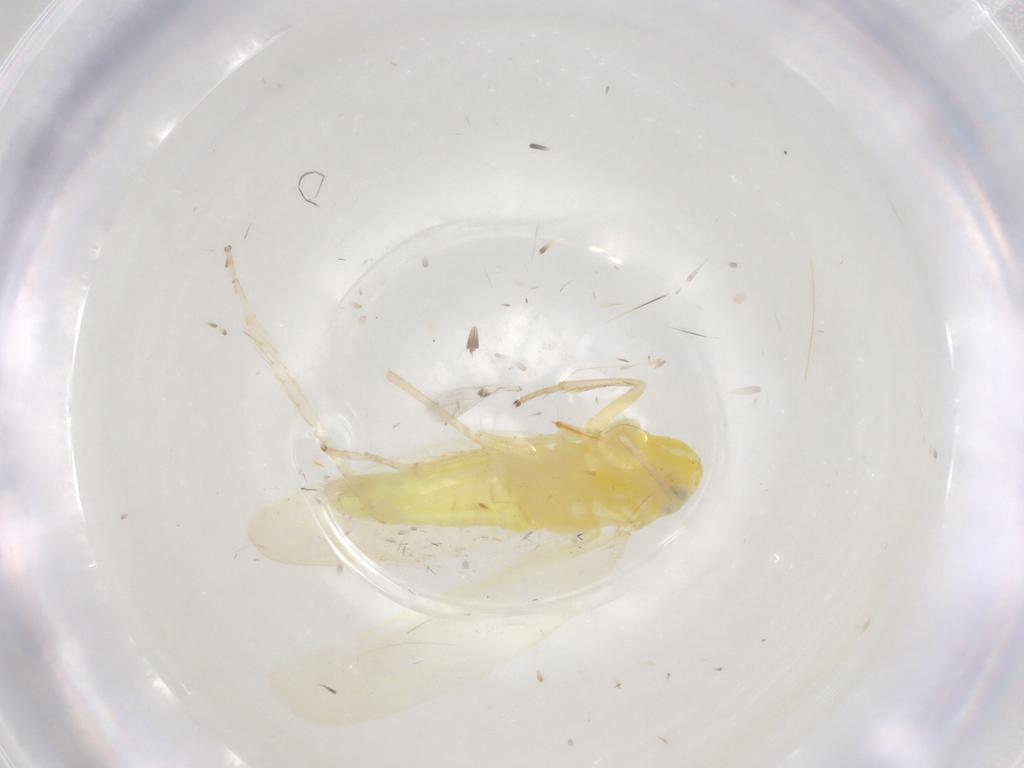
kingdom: Animalia
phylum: Arthropoda
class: Insecta
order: Hemiptera
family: Cicadellidae
